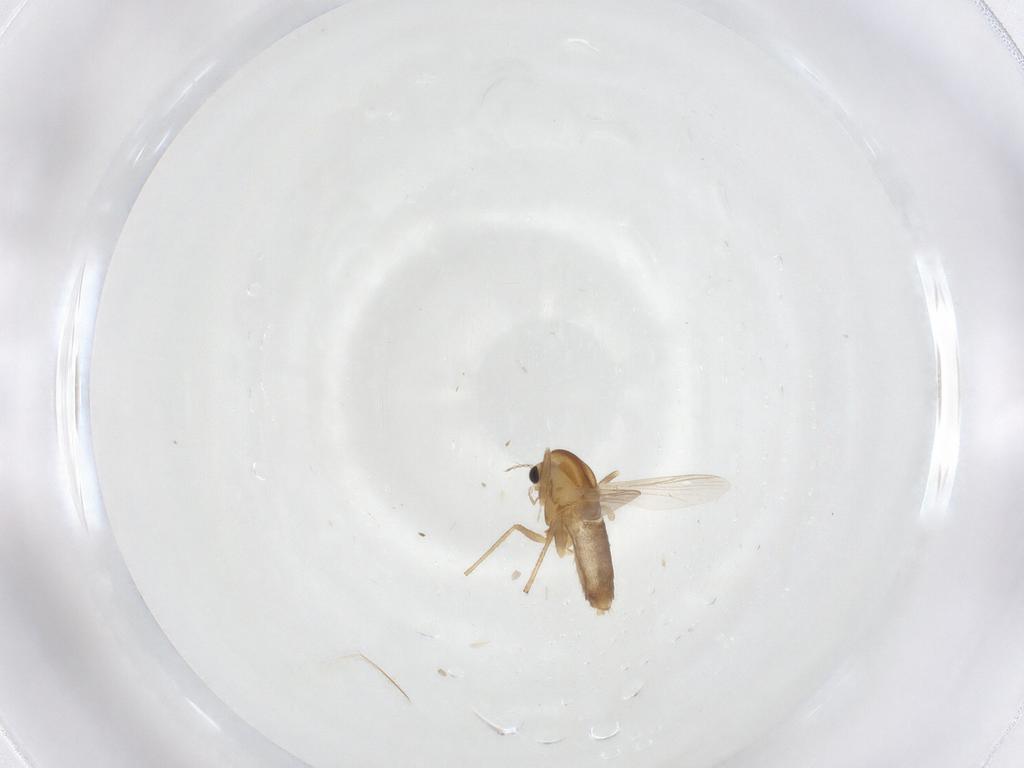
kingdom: Animalia
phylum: Arthropoda
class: Insecta
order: Diptera
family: Chironomidae
